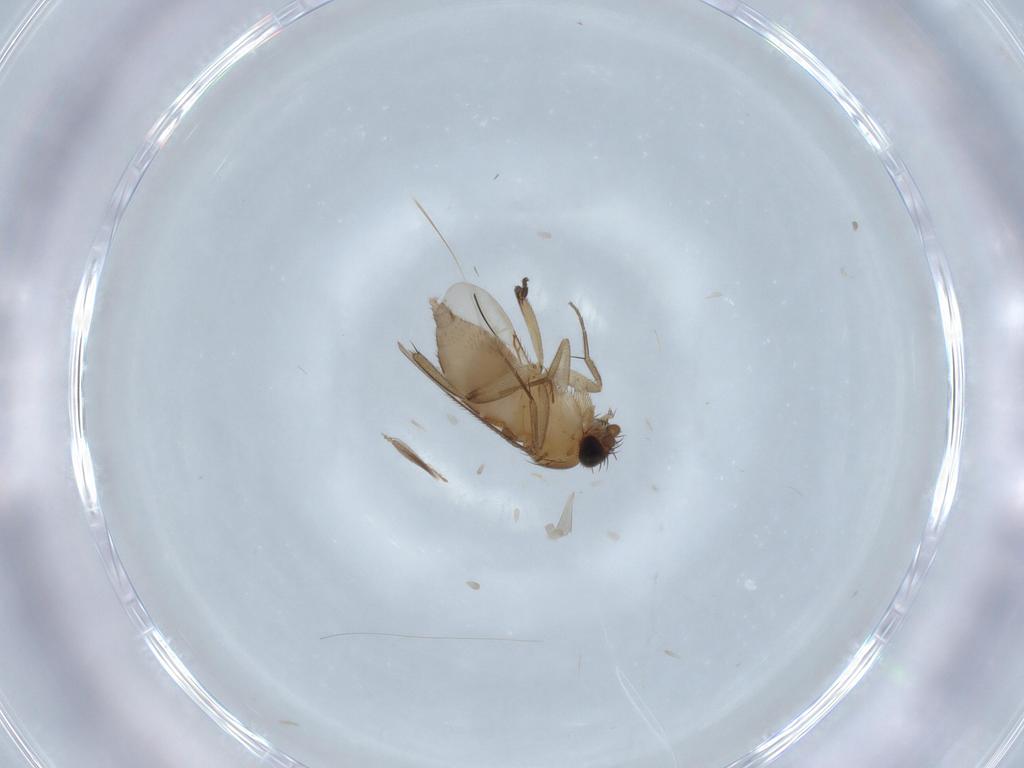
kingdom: Animalia
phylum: Arthropoda
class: Insecta
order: Diptera
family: Phoridae
